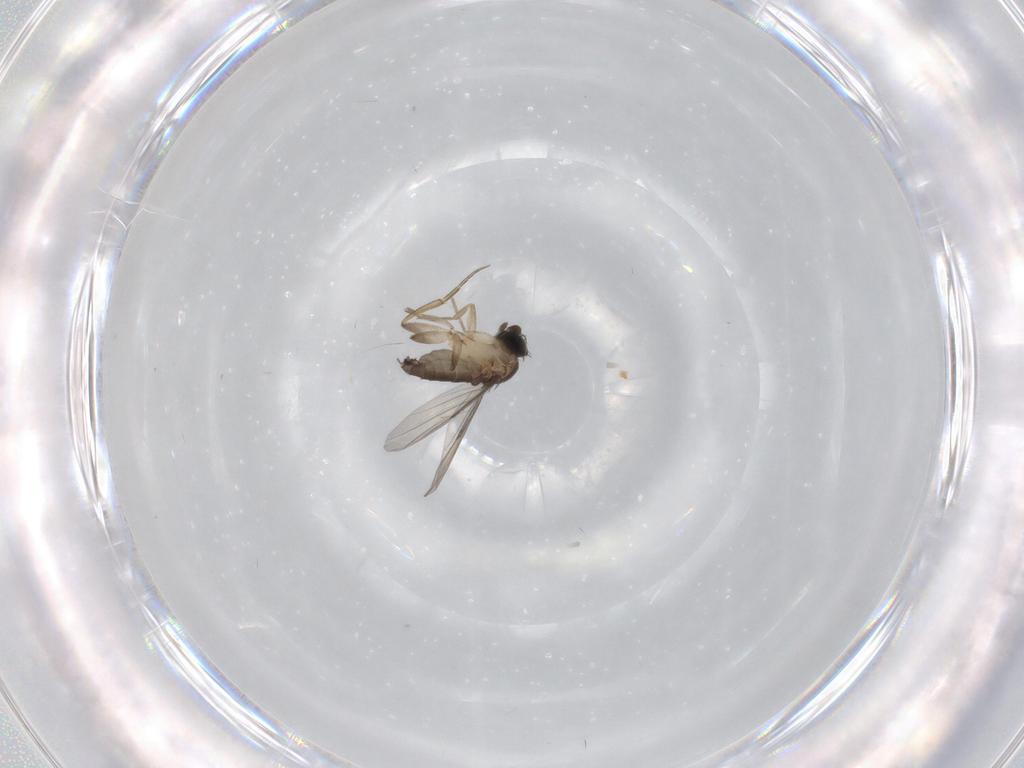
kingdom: Animalia
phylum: Arthropoda
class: Insecta
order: Diptera
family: Phoridae
